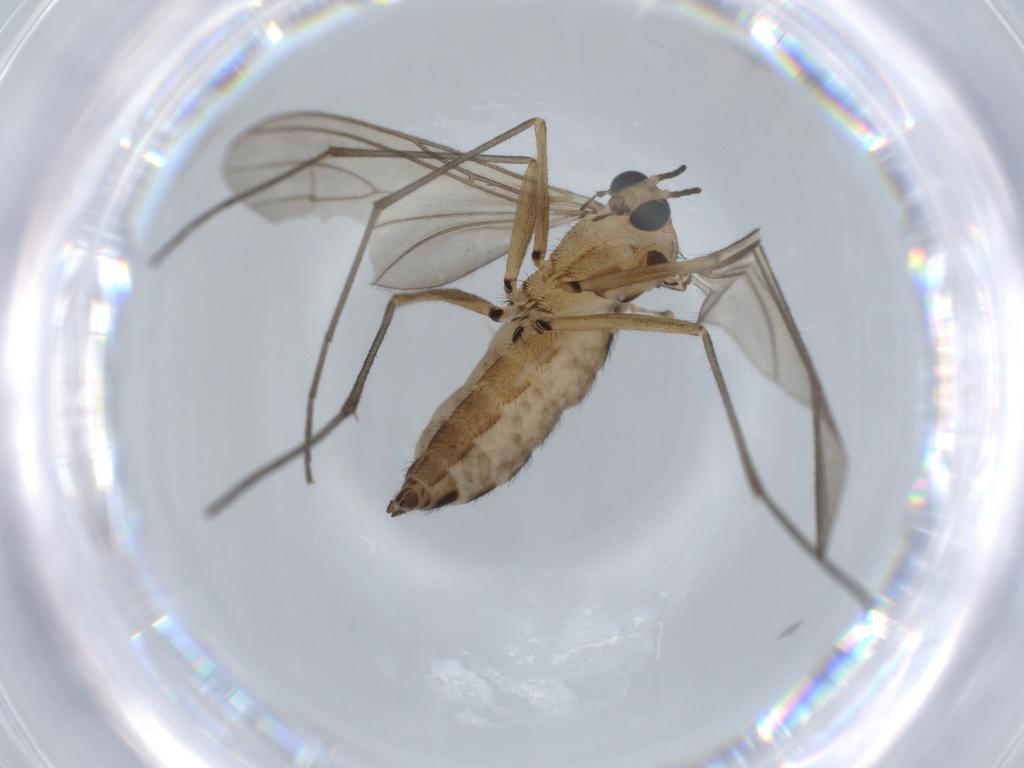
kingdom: Animalia
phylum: Arthropoda
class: Insecta
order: Diptera
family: Sciaridae
